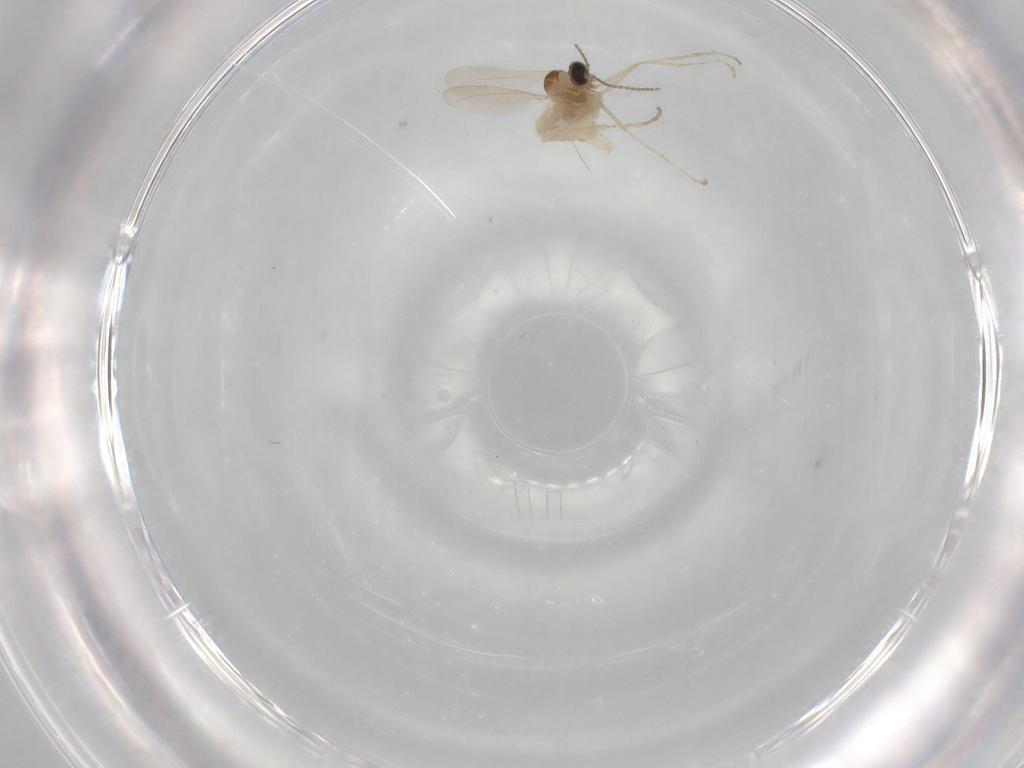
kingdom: Animalia
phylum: Arthropoda
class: Insecta
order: Diptera
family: Cecidomyiidae
